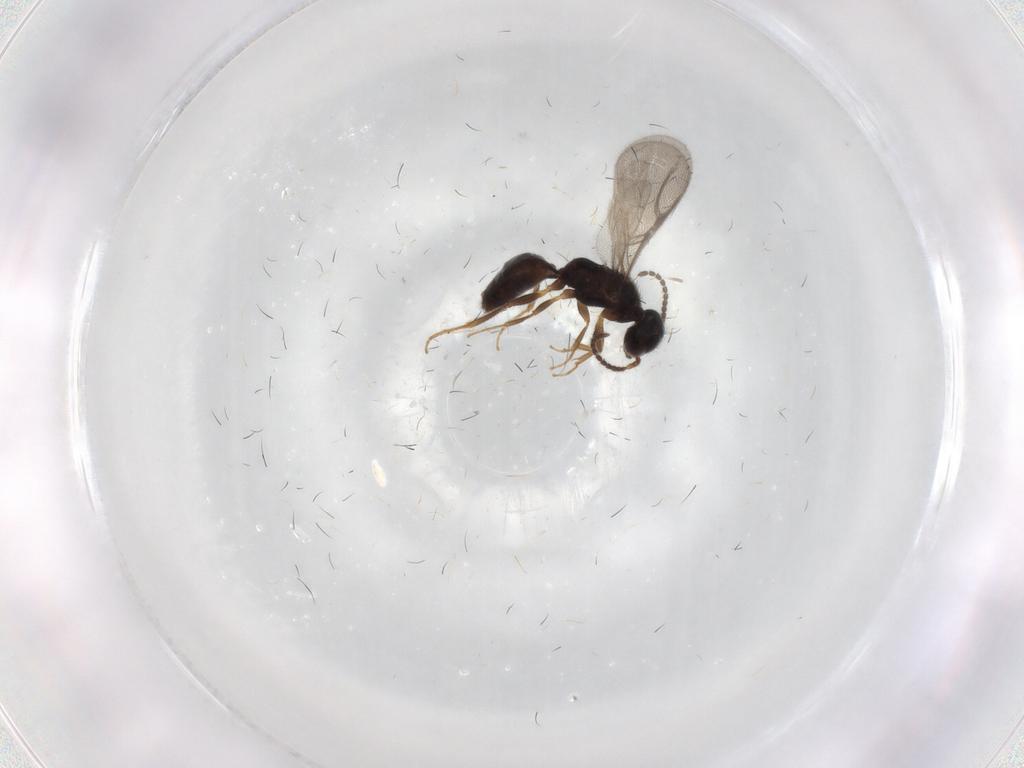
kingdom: Animalia
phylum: Arthropoda
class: Insecta
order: Hymenoptera
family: Bethylidae
